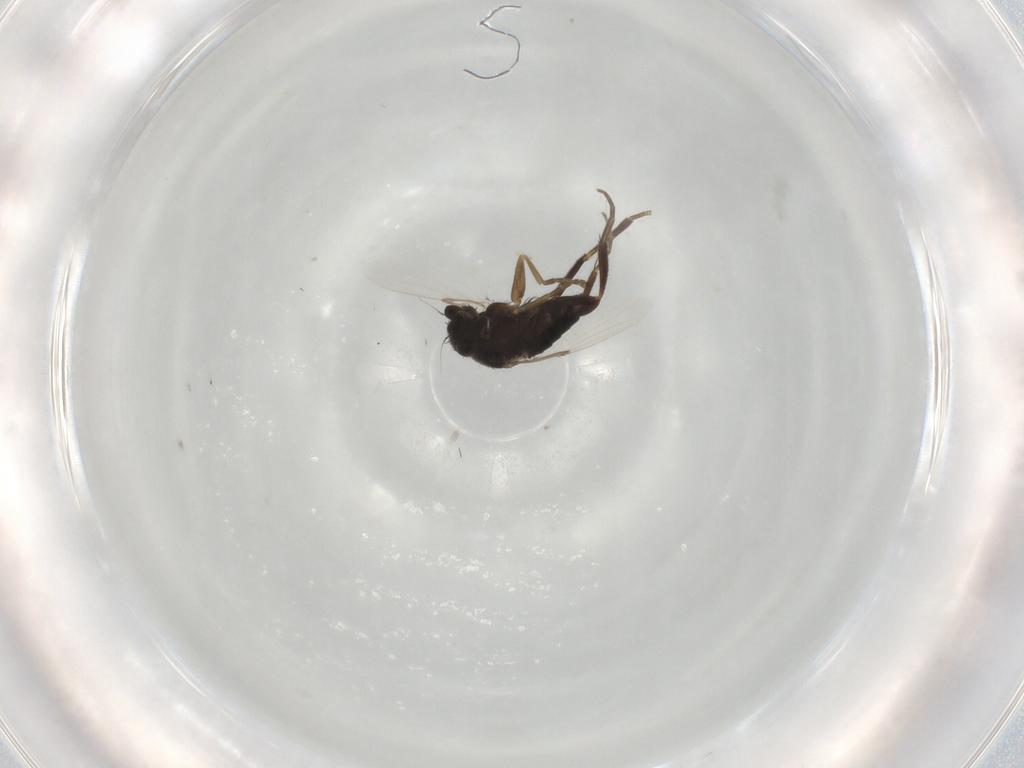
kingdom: Animalia
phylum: Arthropoda
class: Insecta
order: Diptera
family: Phoridae
